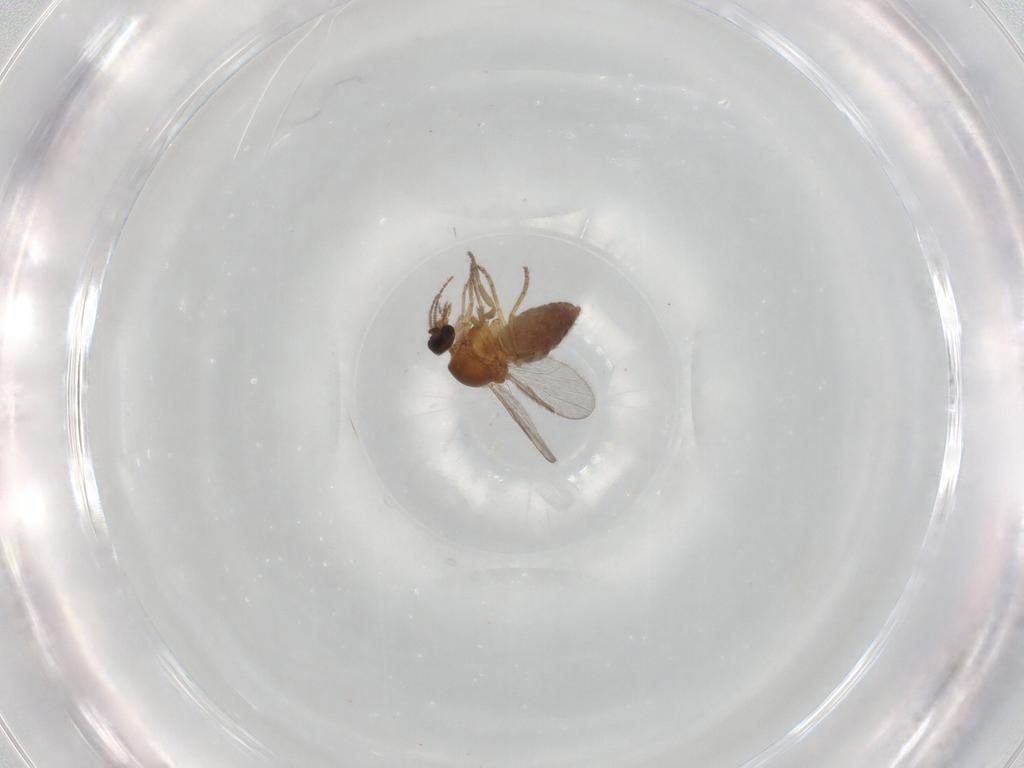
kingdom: Animalia
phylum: Arthropoda
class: Insecta
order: Diptera
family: Ceratopogonidae
